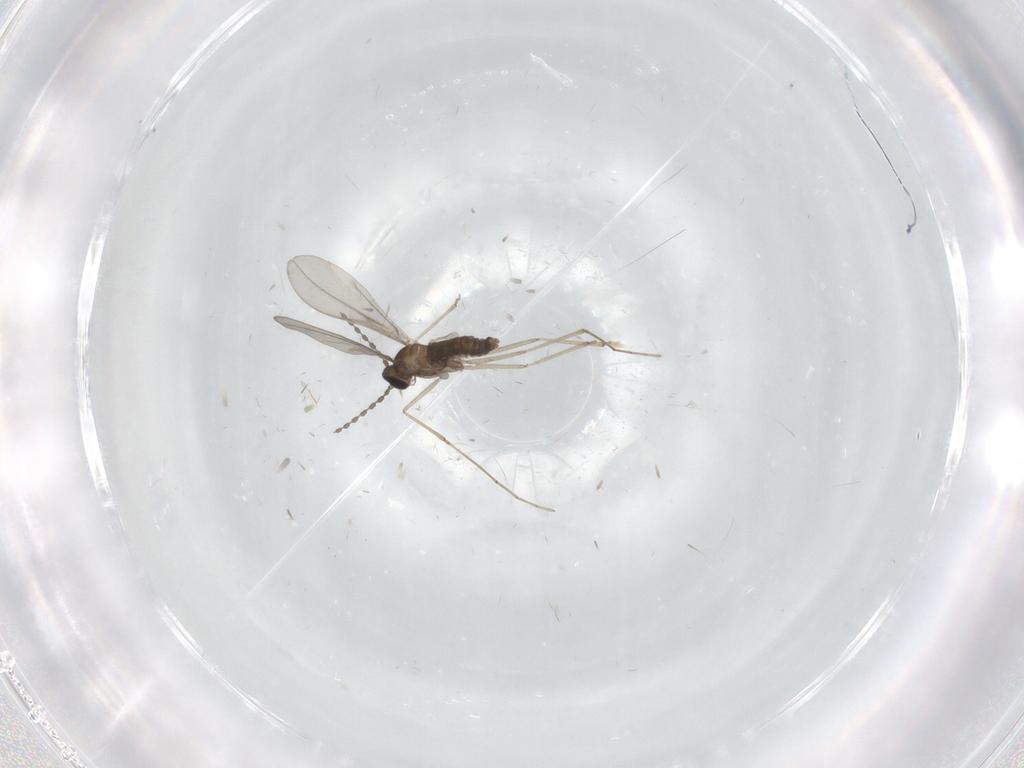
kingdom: Animalia
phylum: Arthropoda
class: Insecta
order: Diptera
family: Cecidomyiidae
